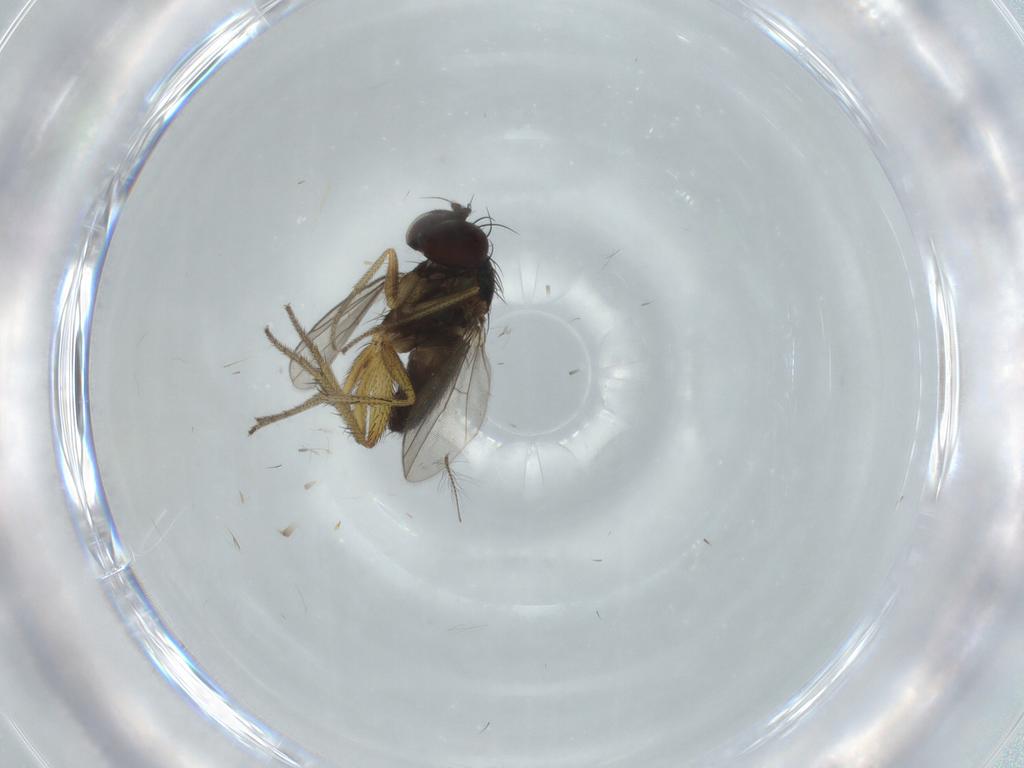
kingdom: Animalia
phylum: Arthropoda
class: Insecta
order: Diptera
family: Dolichopodidae
